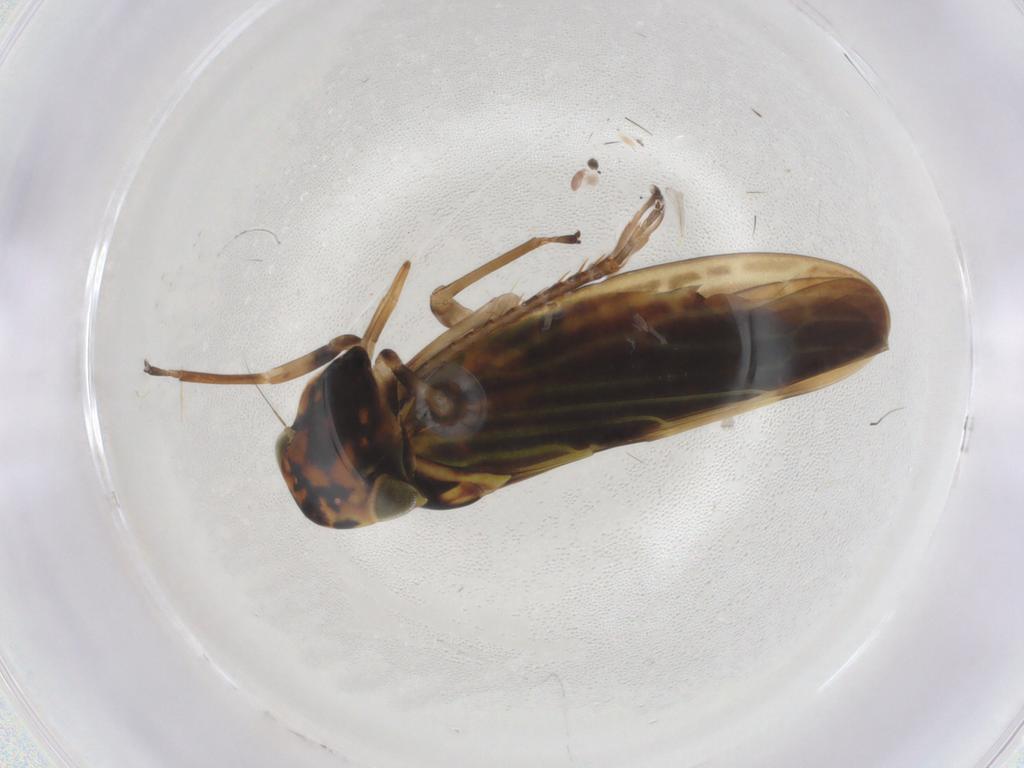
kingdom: Animalia
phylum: Arthropoda
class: Insecta
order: Hemiptera
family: Cicadellidae
